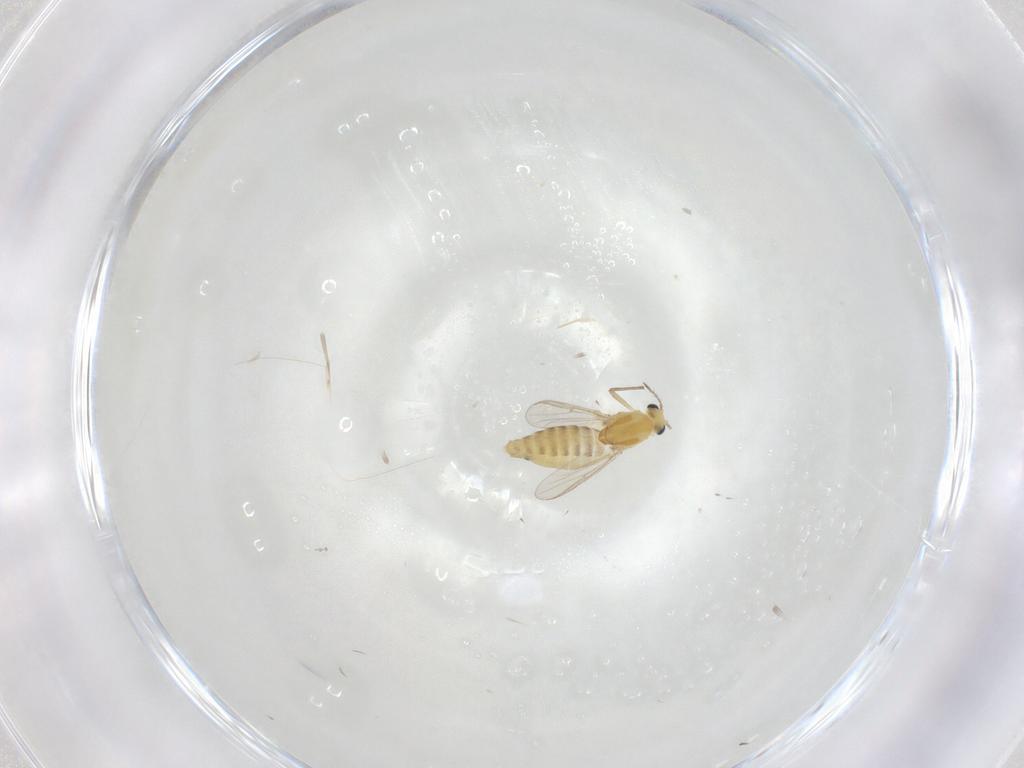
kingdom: Animalia
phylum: Arthropoda
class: Insecta
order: Diptera
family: Chironomidae
